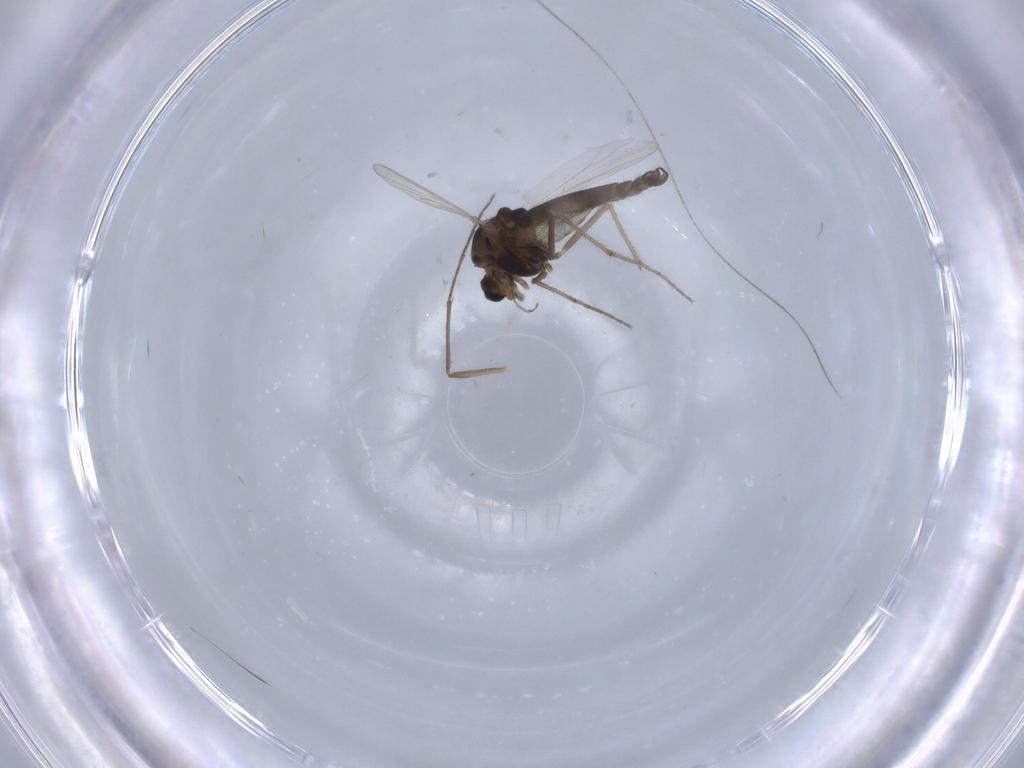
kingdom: Animalia
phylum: Arthropoda
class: Insecta
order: Diptera
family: Chironomidae
